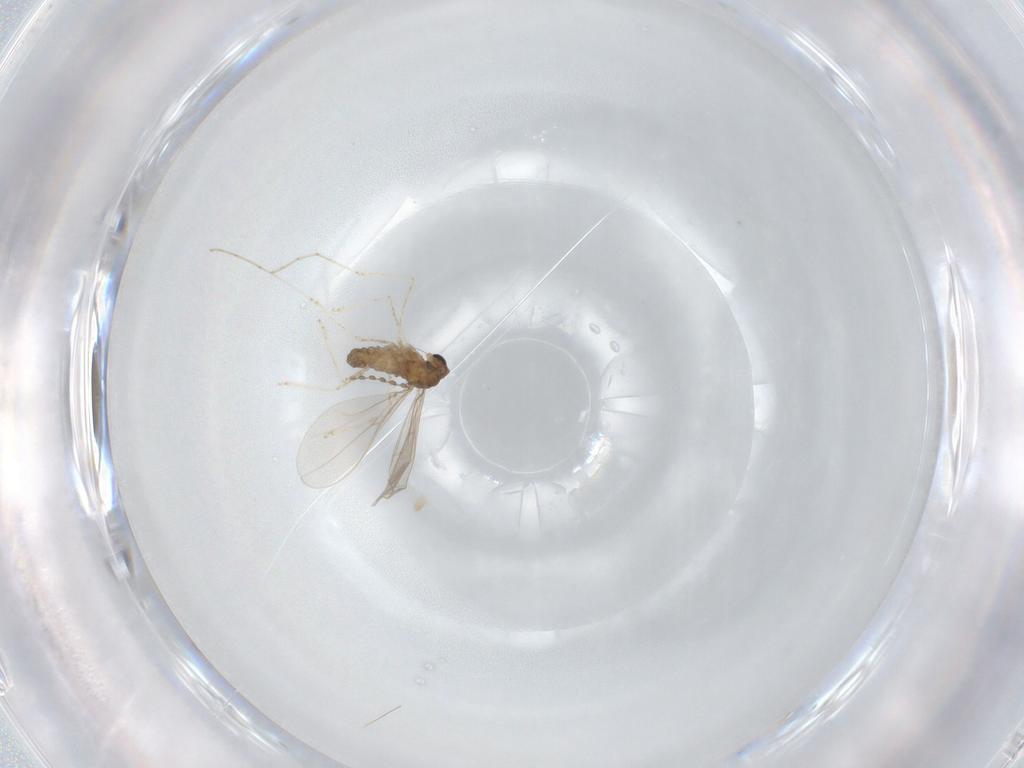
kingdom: Animalia
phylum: Arthropoda
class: Insecta
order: Diptera
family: Cecidomyiidae
